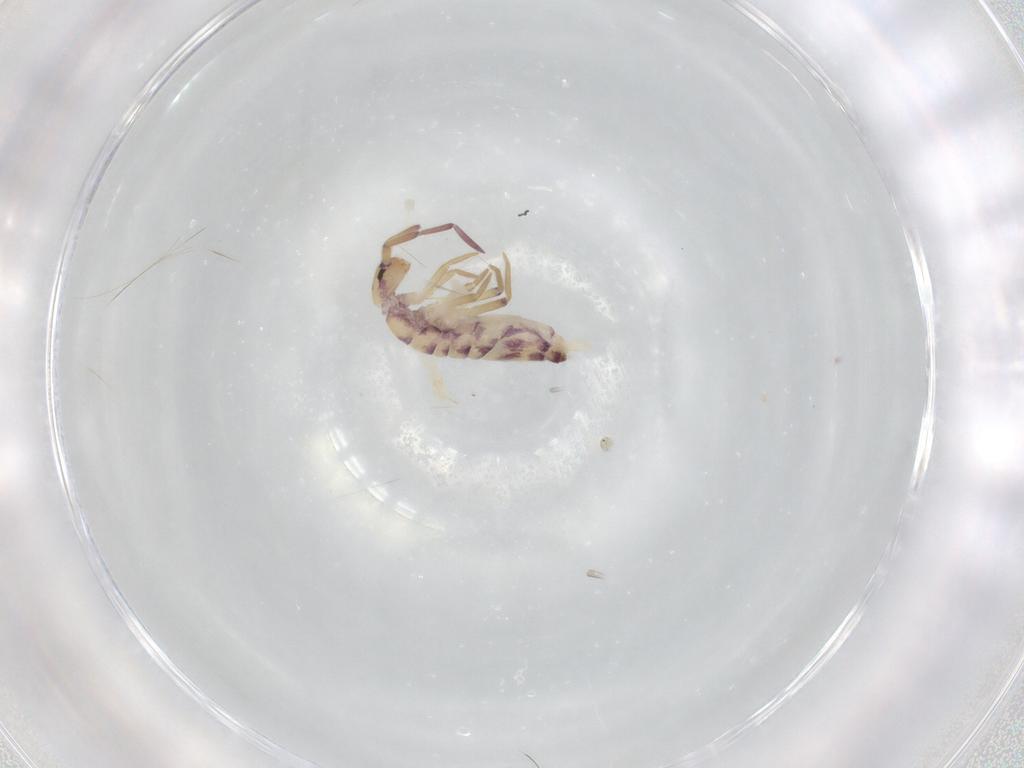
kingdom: Animalia
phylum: Arthropoda
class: Collembola
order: Entomobryomorpha
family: Entomobryidae
